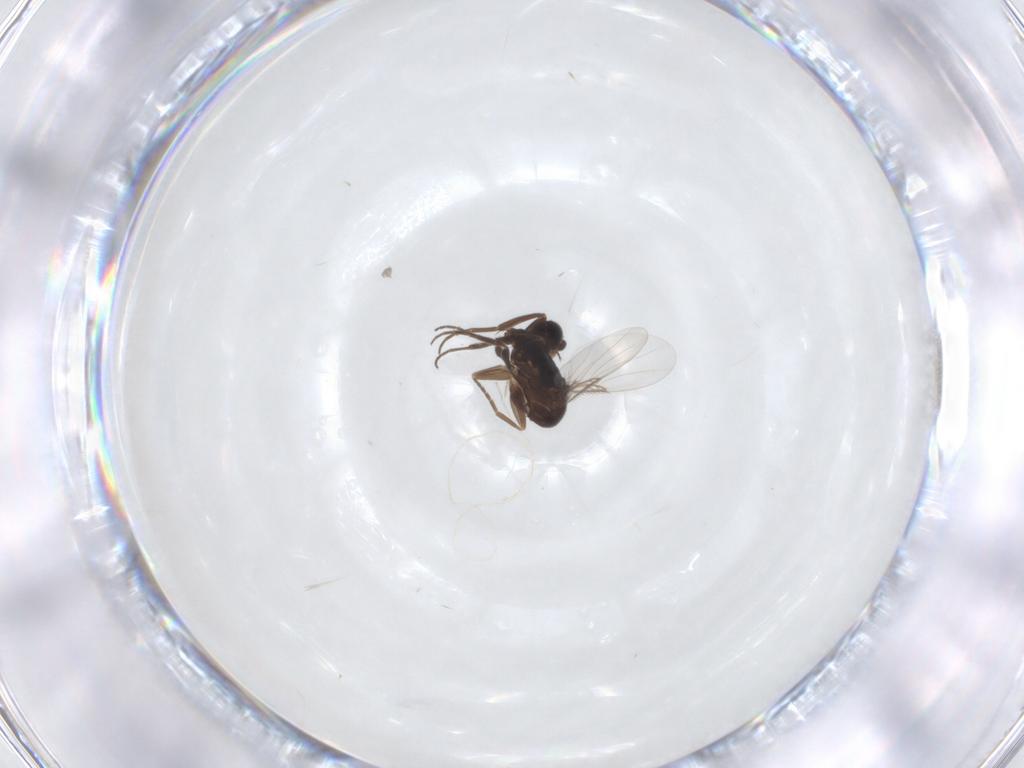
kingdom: Animalia
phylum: Arthropoda
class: Insecta
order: Diptera
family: Phoridae
